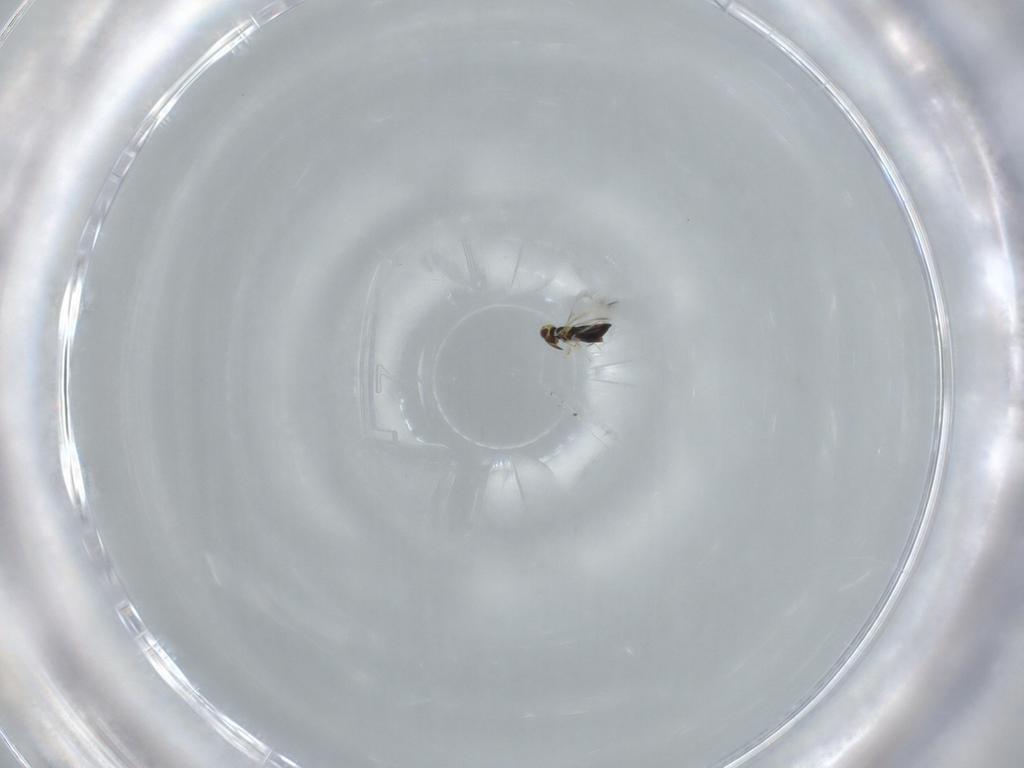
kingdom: Animalia
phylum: Arthropoda
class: Insecta
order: Hymenoptera
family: Signiphoridae
